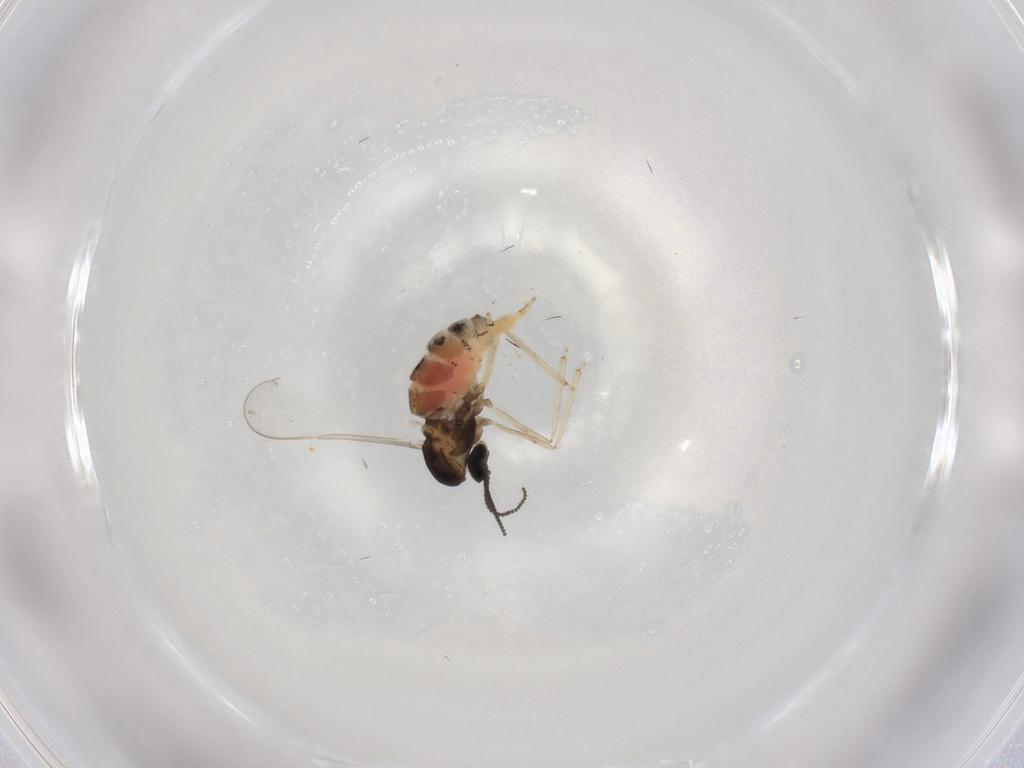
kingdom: Animalia
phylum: Arthropoda
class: Insecta
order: Diptera
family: Cecidomyiidae
